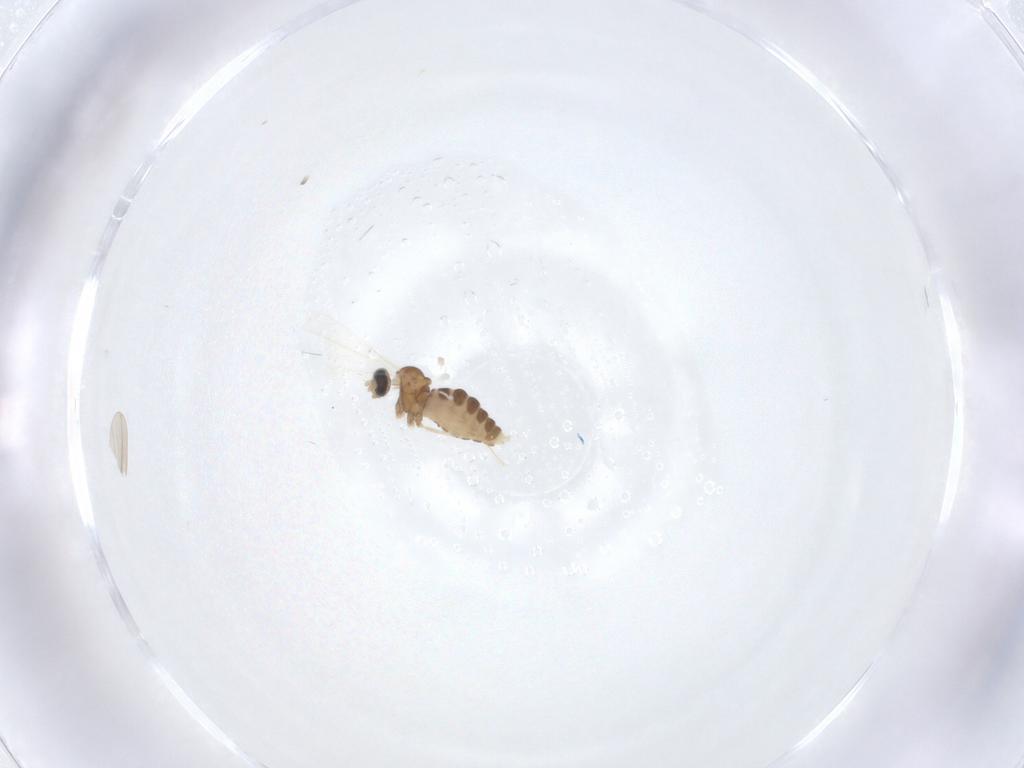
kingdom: Animalia
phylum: Arthropoda
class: Insecta
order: Diptera
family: Cecidomyiidae
